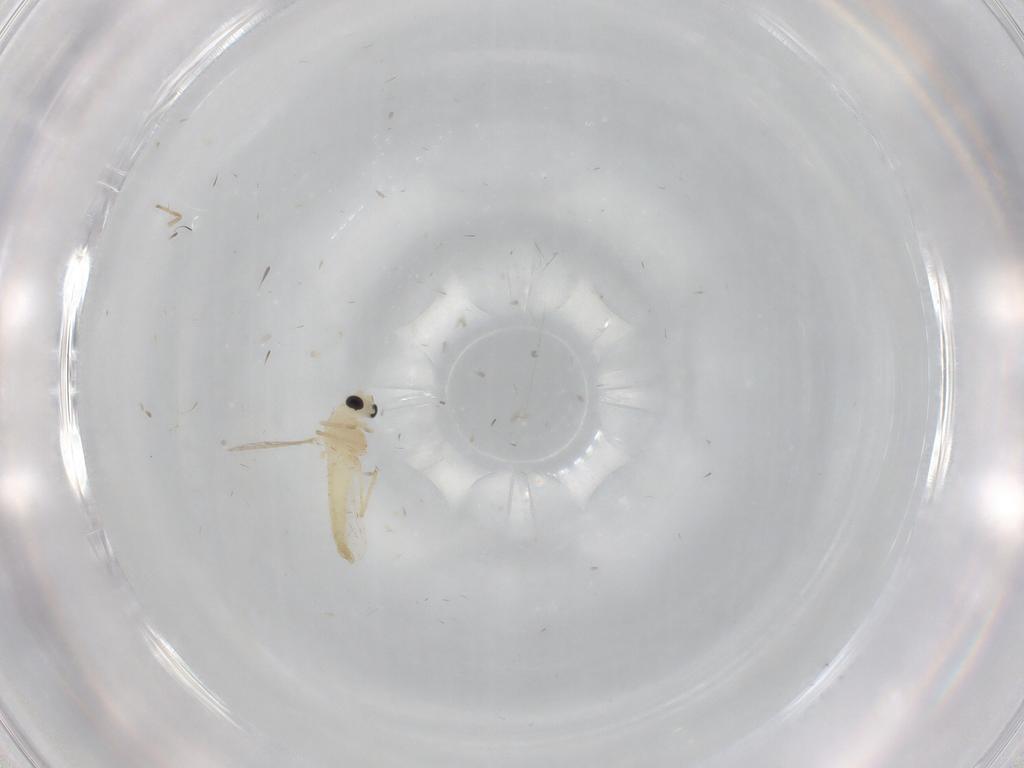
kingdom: Animalia
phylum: Arthropoda
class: Insecta
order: Diptera
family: Chironomidae
